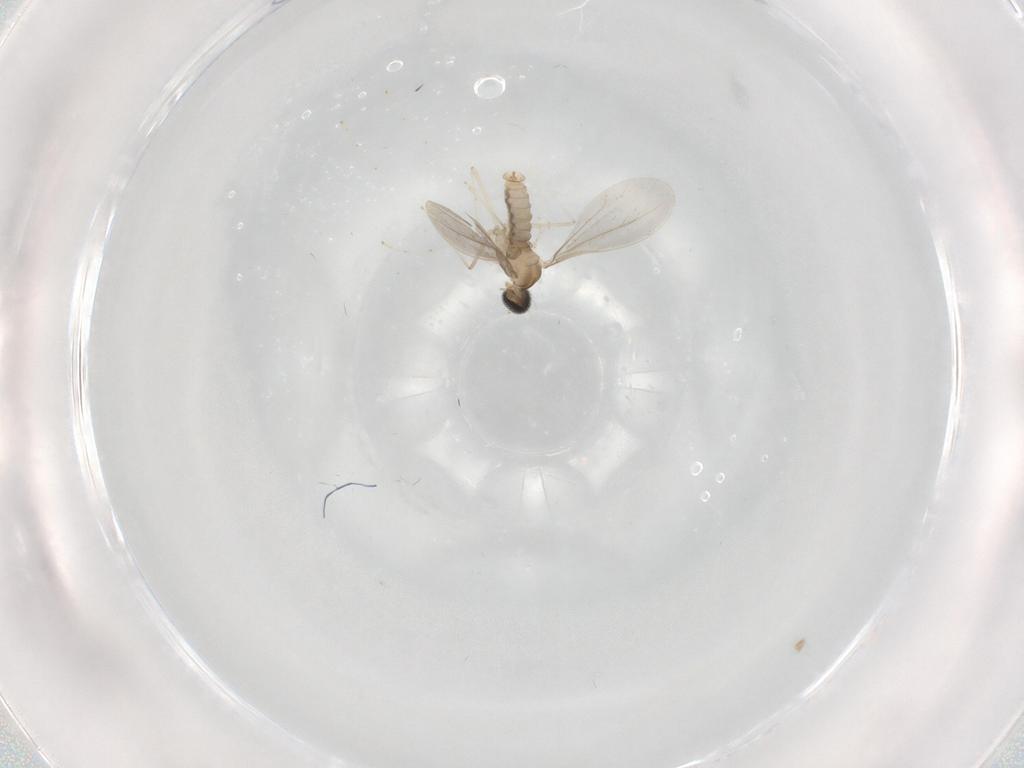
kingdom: Animalia
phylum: Arthropoda
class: Insecta
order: Diptera
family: Cecidomyiidae
